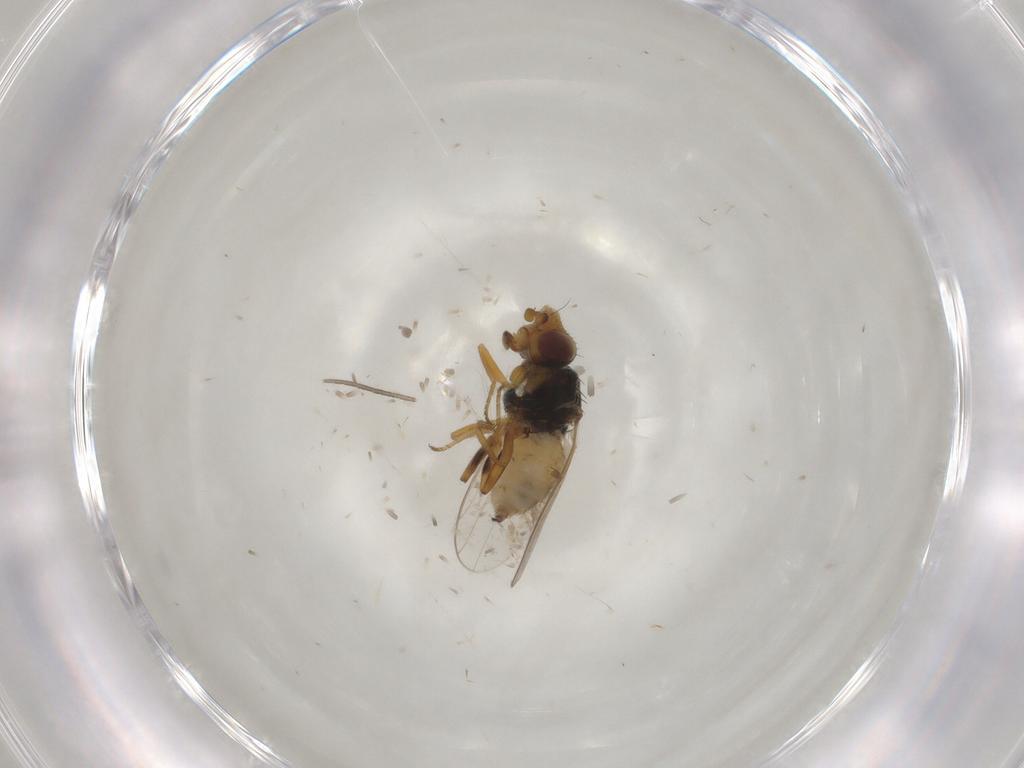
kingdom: Animalia
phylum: Arthropoda
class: Insecta
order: Diptera
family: Chloropidae
